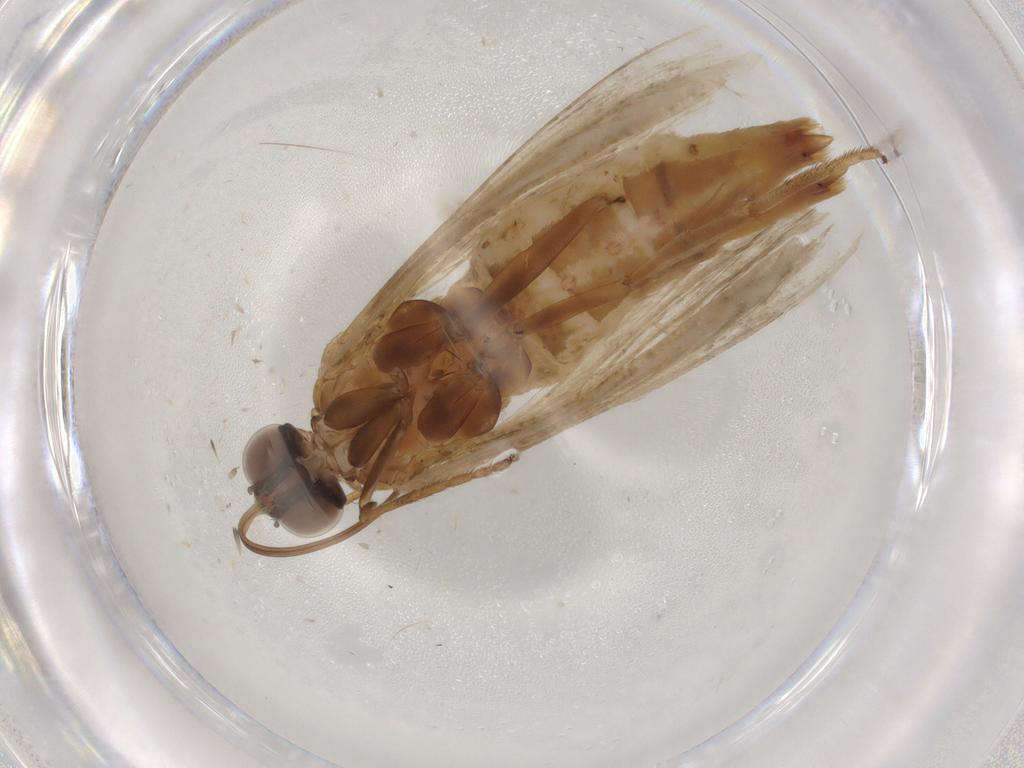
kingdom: Animalia
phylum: Arthropoda
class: Insecta
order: Lepidoptera
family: Pyralidae
